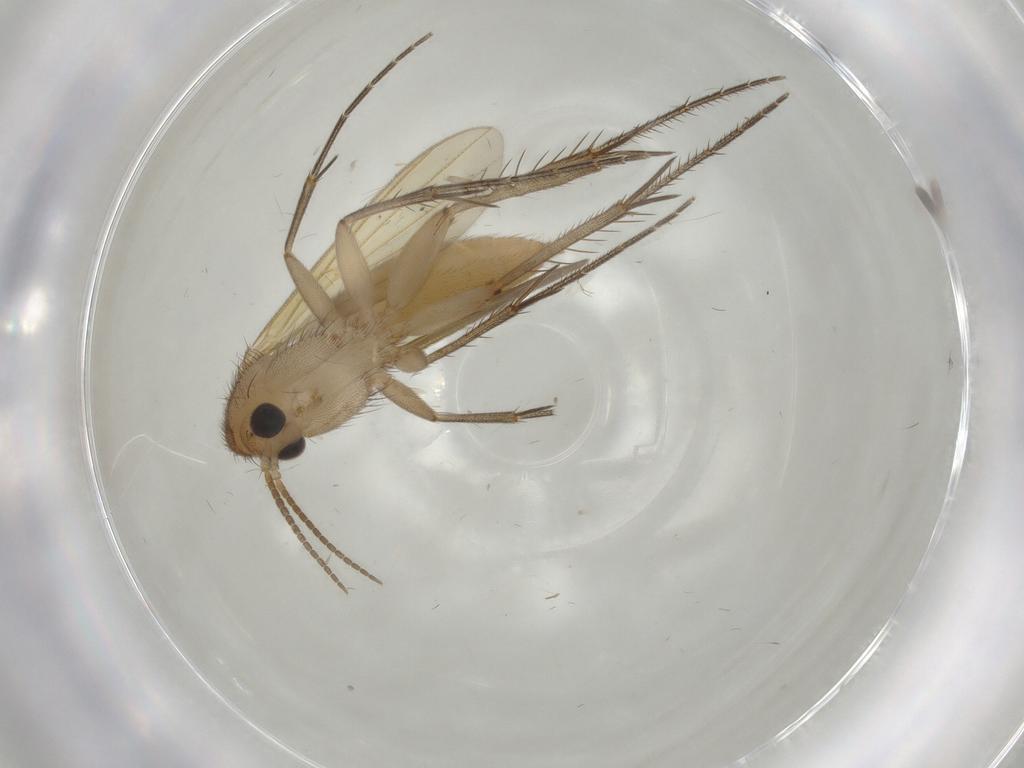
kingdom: Animalia
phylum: Arthropoda
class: Insecta
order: Diptera
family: Mycetophilidae
